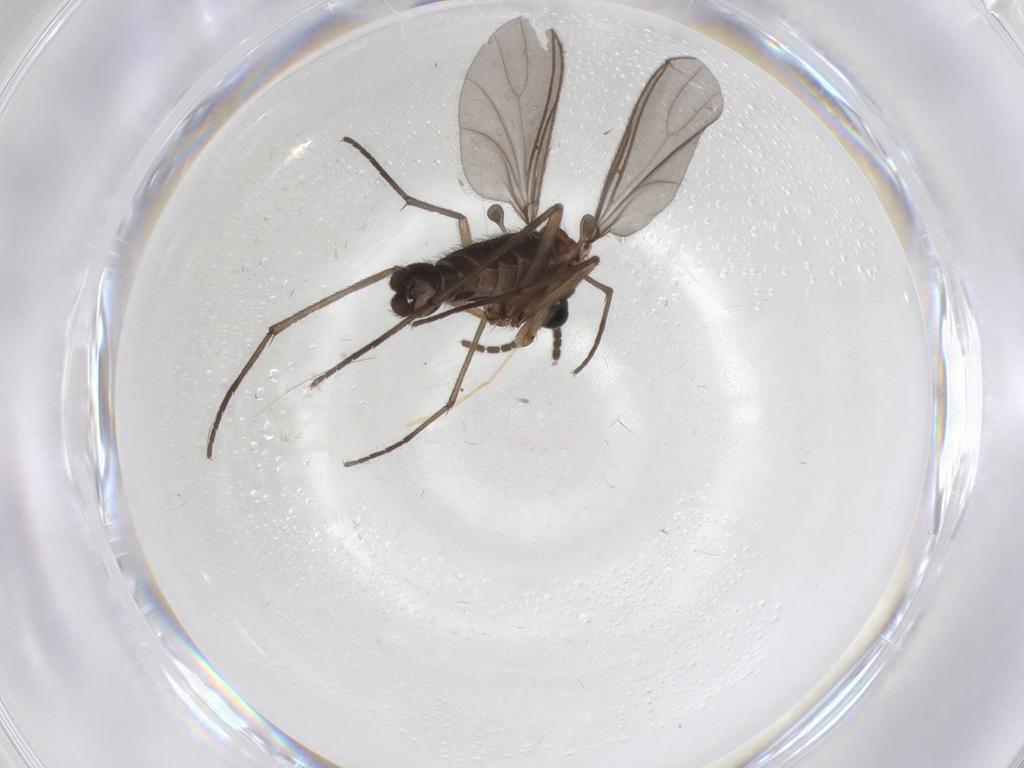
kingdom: Animalia
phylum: Arthropoda
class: Insecta
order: Diptera
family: Sciaridae
